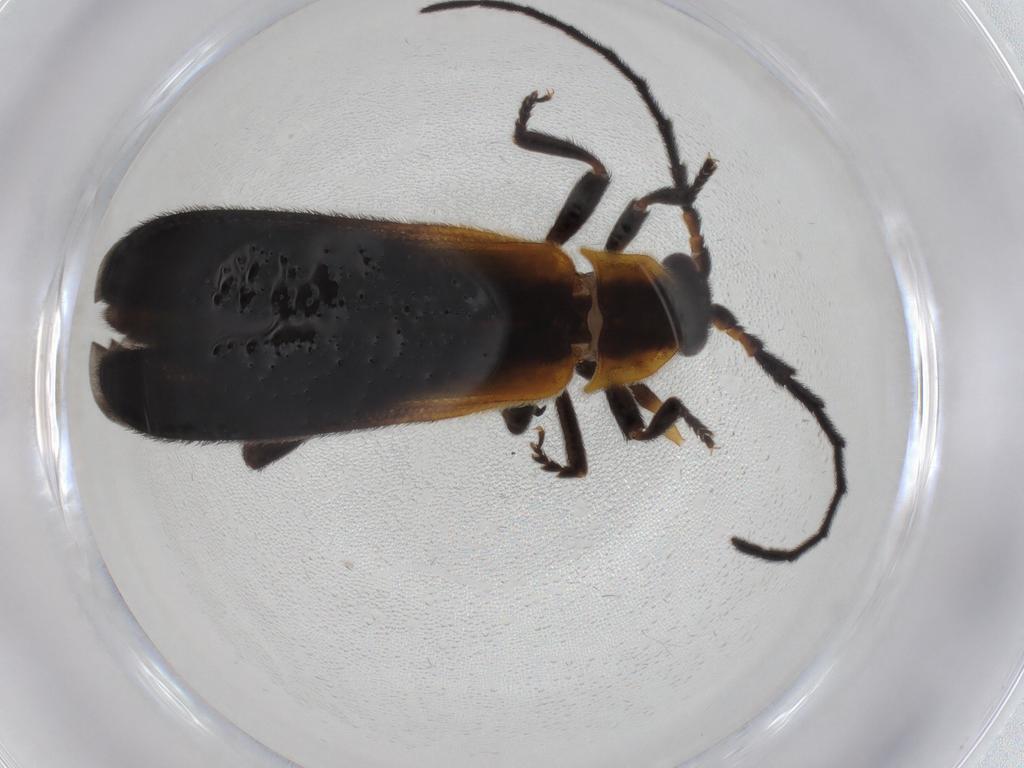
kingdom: Animalia
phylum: Arthropoda
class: Insecta
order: Coleoptera
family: Lycidae
